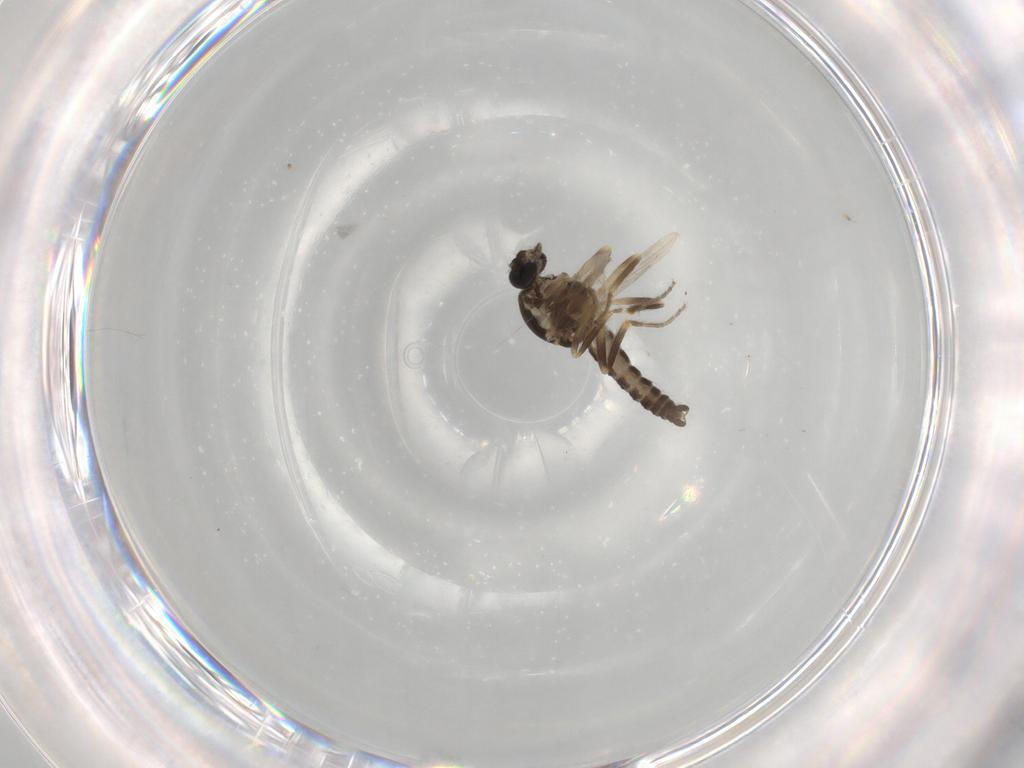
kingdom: Animalia
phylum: Arthropoda
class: Insecta
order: Diptera
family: Ceratopogonidae
